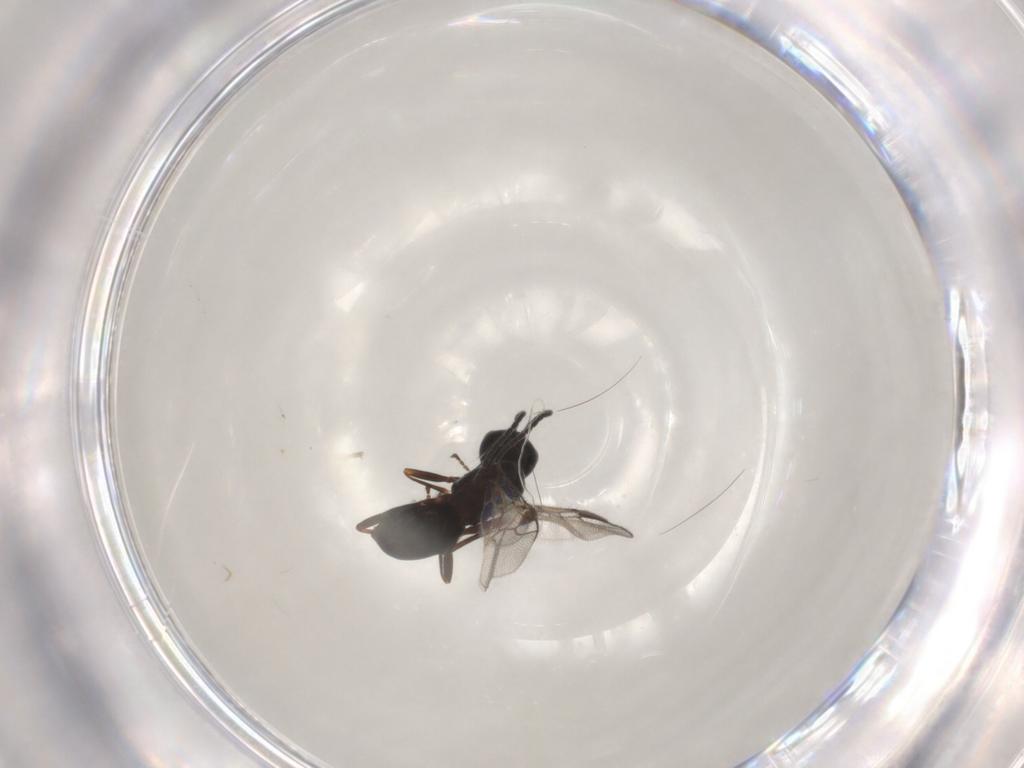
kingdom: Animalia
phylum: Arthropoda
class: Insecta
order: Hymenoptera
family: Braconidae
